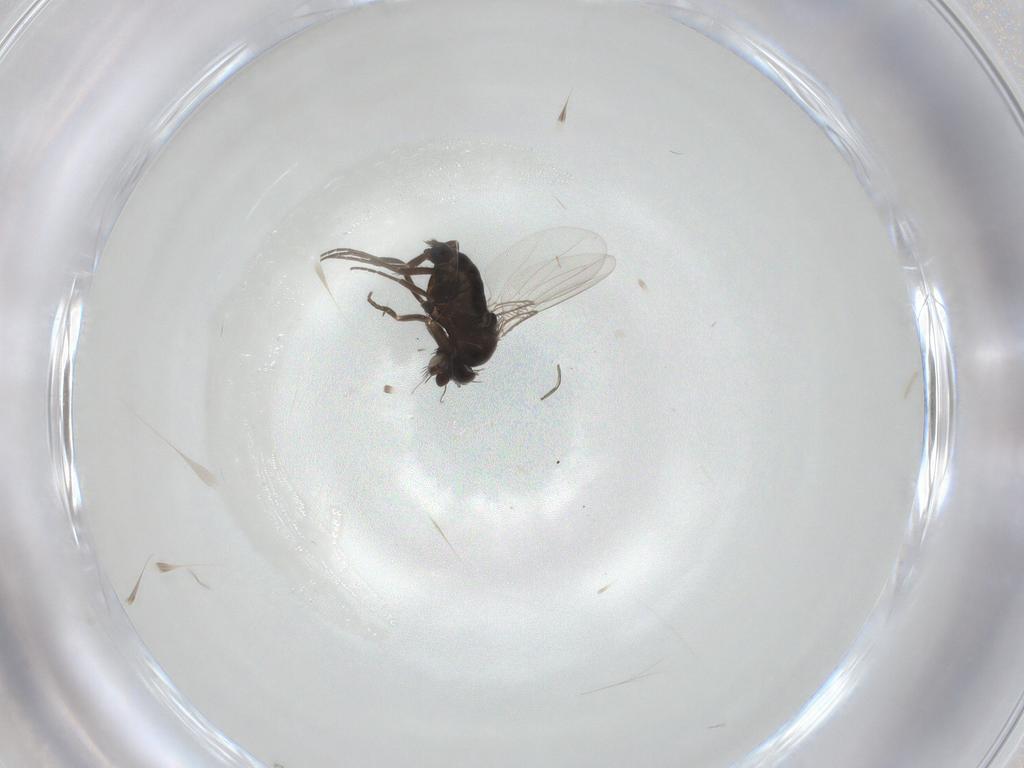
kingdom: Animalia
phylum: Arthropoda
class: Insecta
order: Diptera
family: Phoridae
